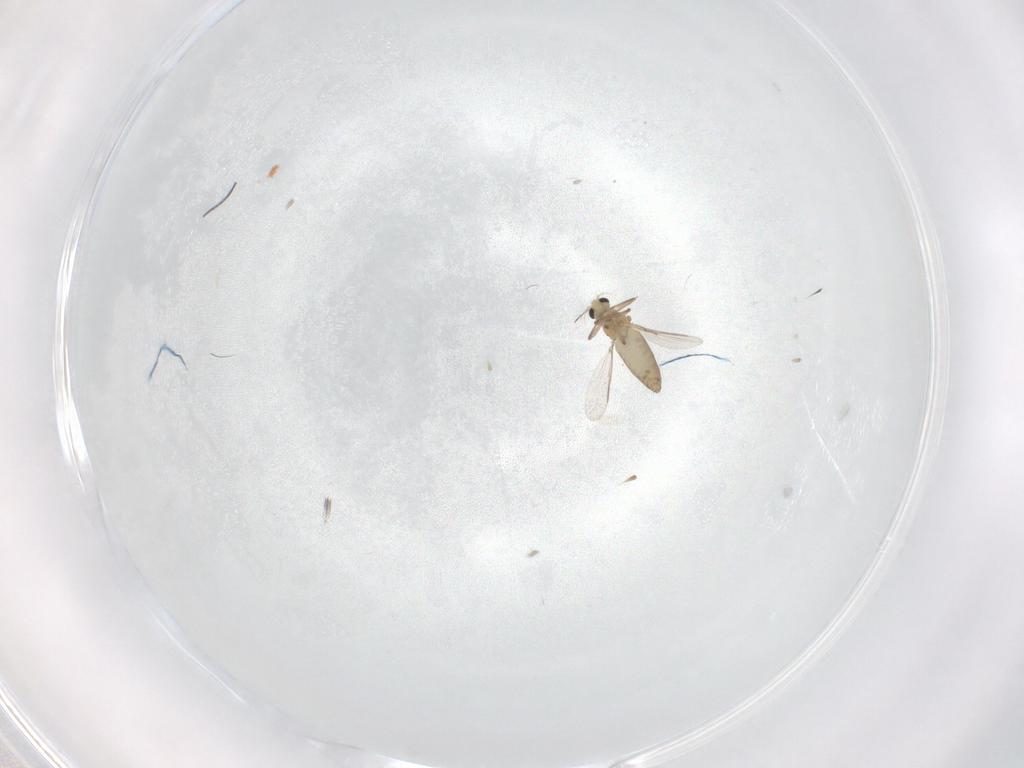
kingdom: Animalia
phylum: Arthropoda
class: Insecta
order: Diptera
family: Chironomidae
